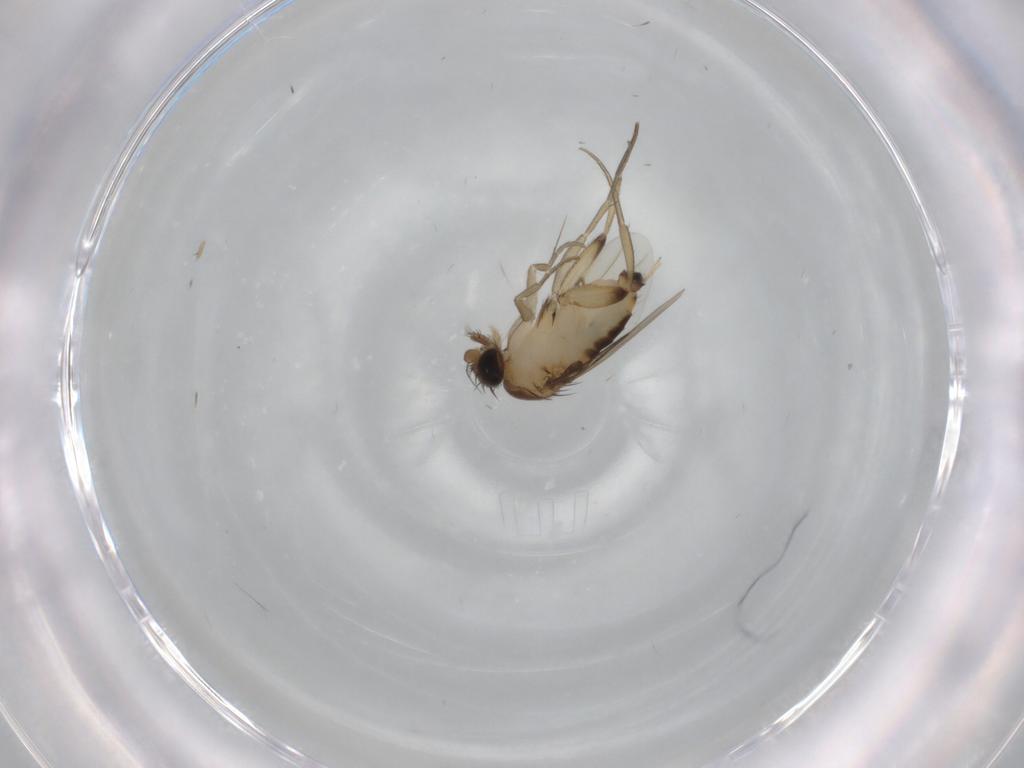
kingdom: Animalia
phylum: Arthropoda
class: Insecta
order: Diptera
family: Phoridae
